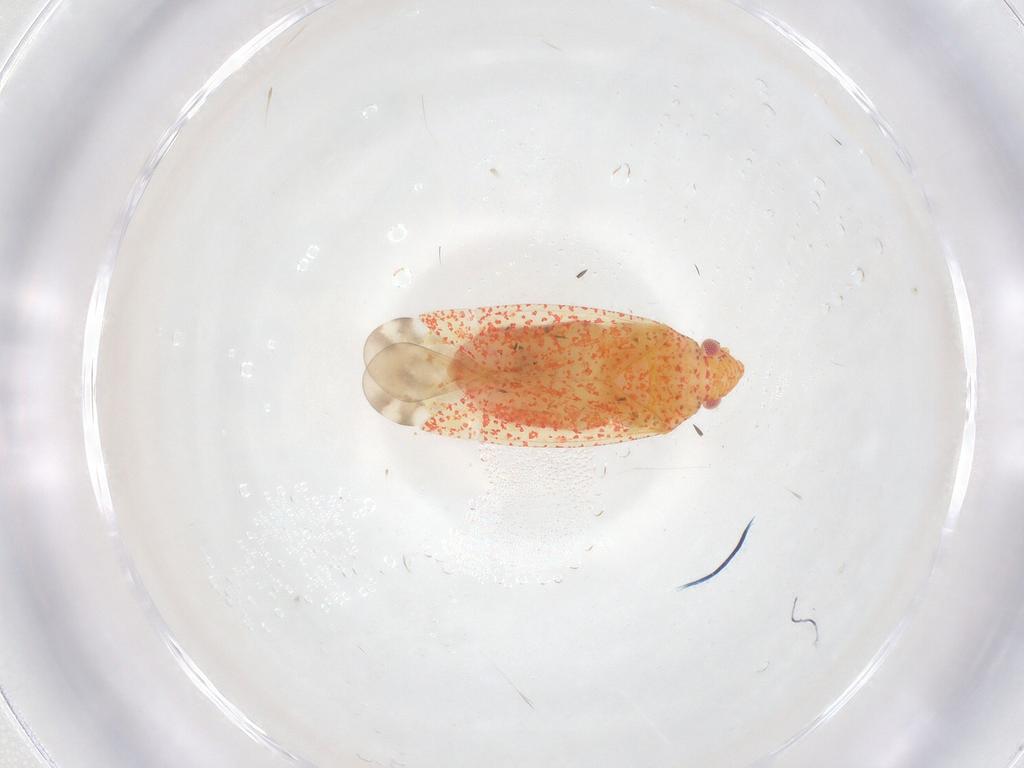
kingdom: Animalia
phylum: Arthropoda
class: Insecta
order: Hemiptera
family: Miridae
